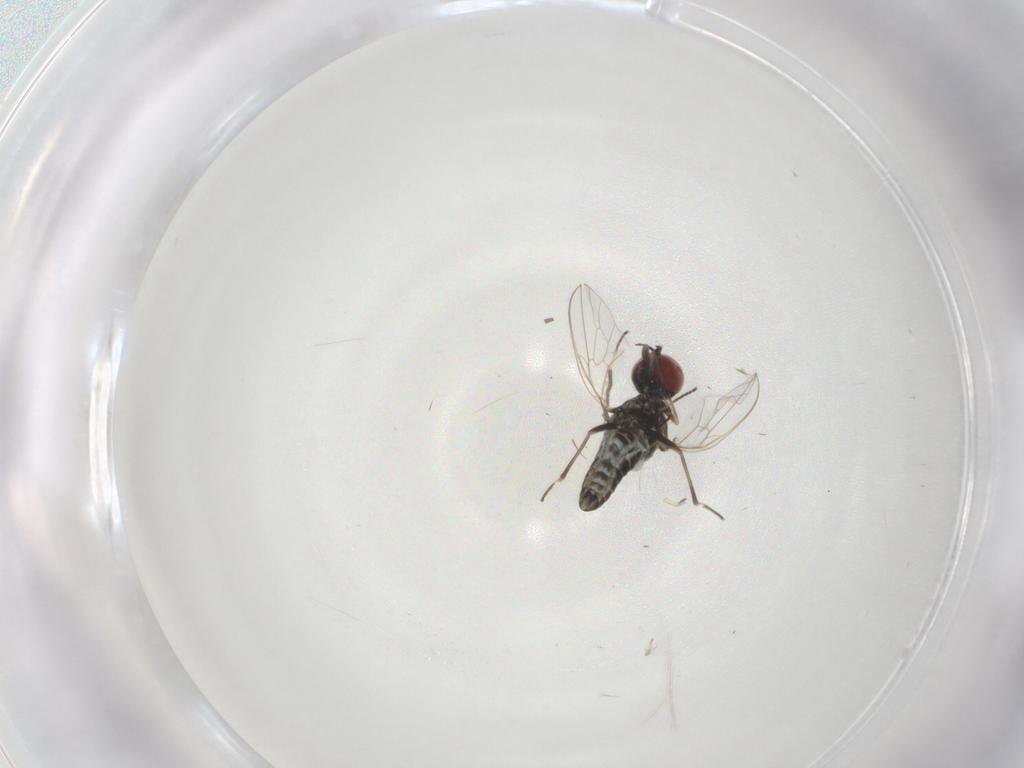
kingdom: Animalia
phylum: Arthropoda
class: Insecta
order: Diptera
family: Bombyliidae
